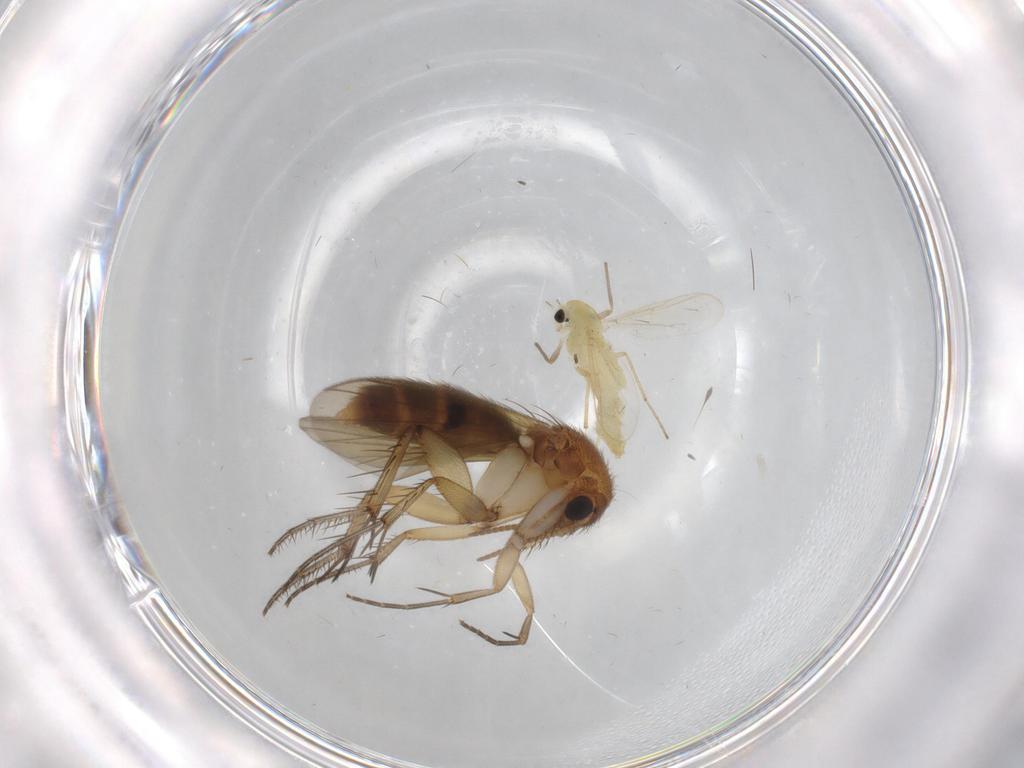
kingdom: Animalia
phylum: Arthropoda
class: Insecta
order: Diptera
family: Mycetophilidae
